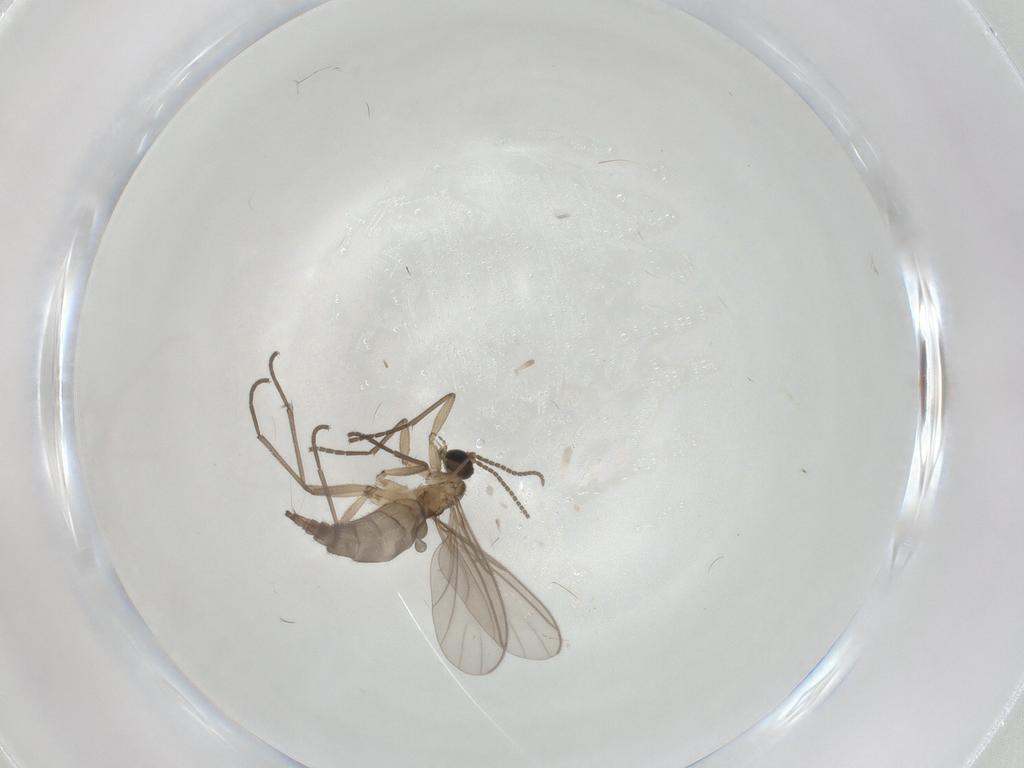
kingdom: Animalia
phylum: Arthropoda
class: Insecta
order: Diptera
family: Sciaridae
